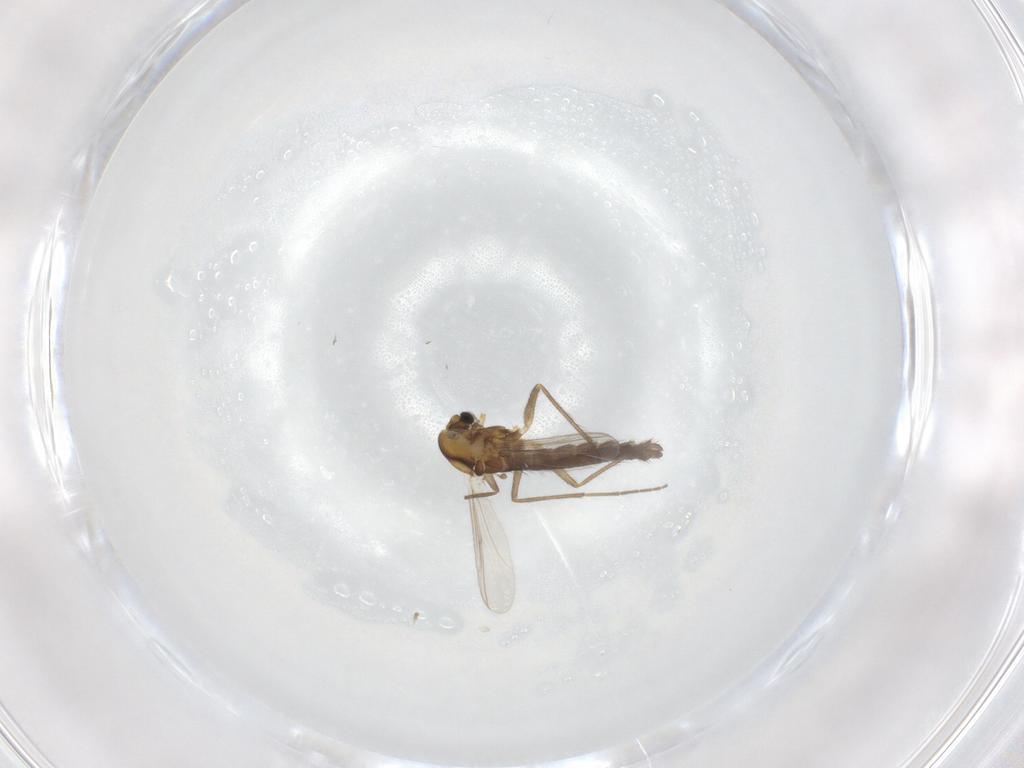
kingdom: Animalia
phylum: Arthropoda
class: Insecta
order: Diptera
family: Chironomidae
